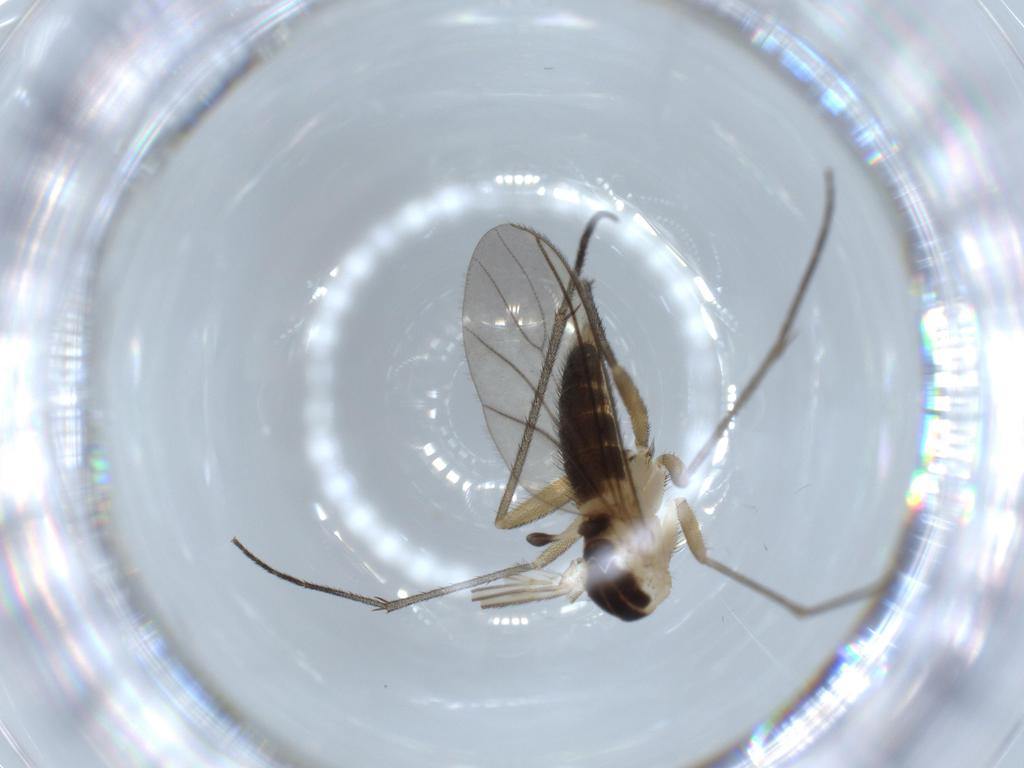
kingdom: Animalia
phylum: Arthropoda
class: Insecta
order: Diptera
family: Sciaridae
